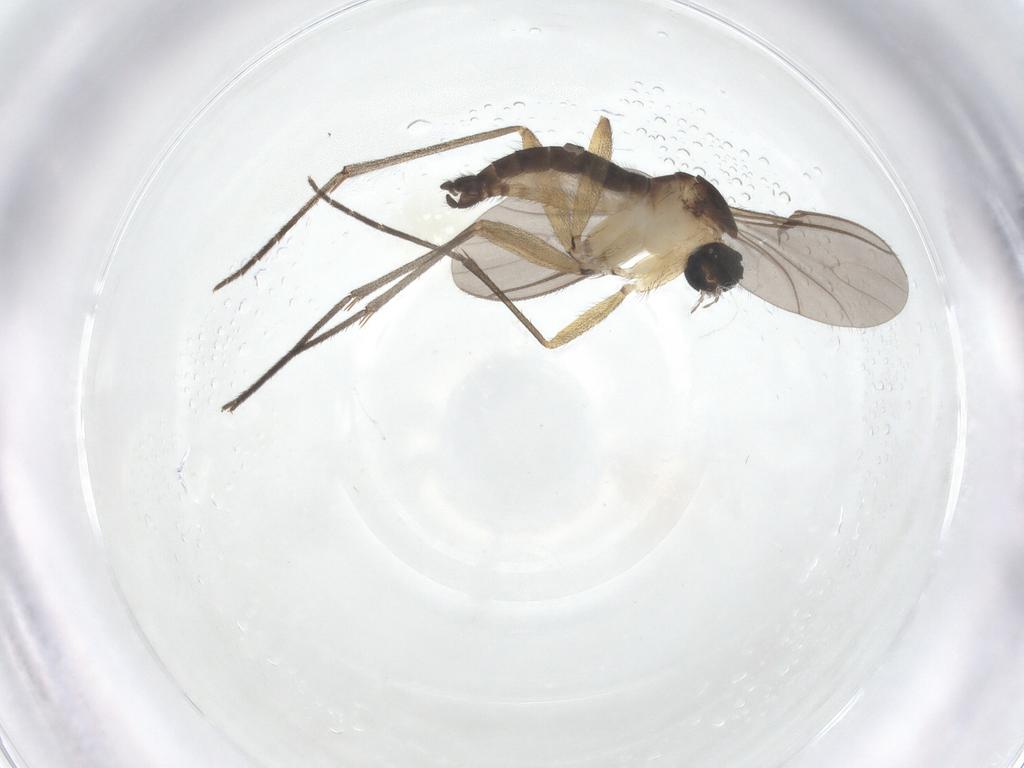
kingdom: Animalia
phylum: Arthropoda
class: Insecta
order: Diptera
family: Sciaridae
